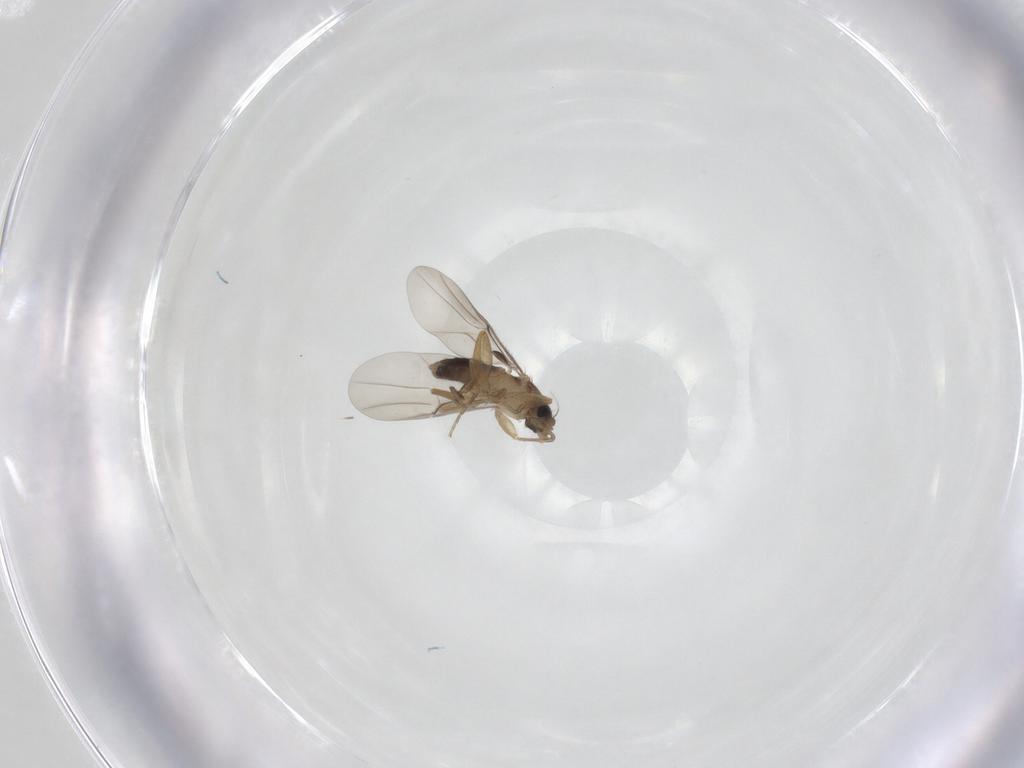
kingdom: Animalia
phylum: Arthropoda
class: Insecta
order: Diptera
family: Phoridae
